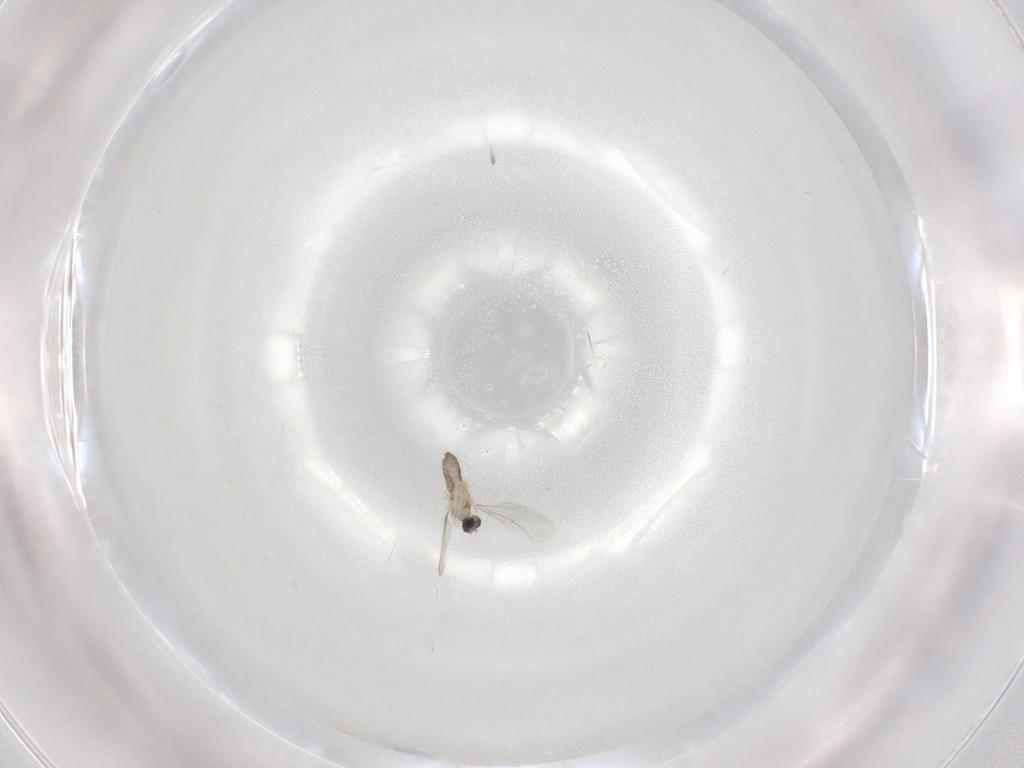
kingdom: Animalia
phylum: Arthropoda
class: Insecta
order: Diptera
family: Cecidomyiidae
